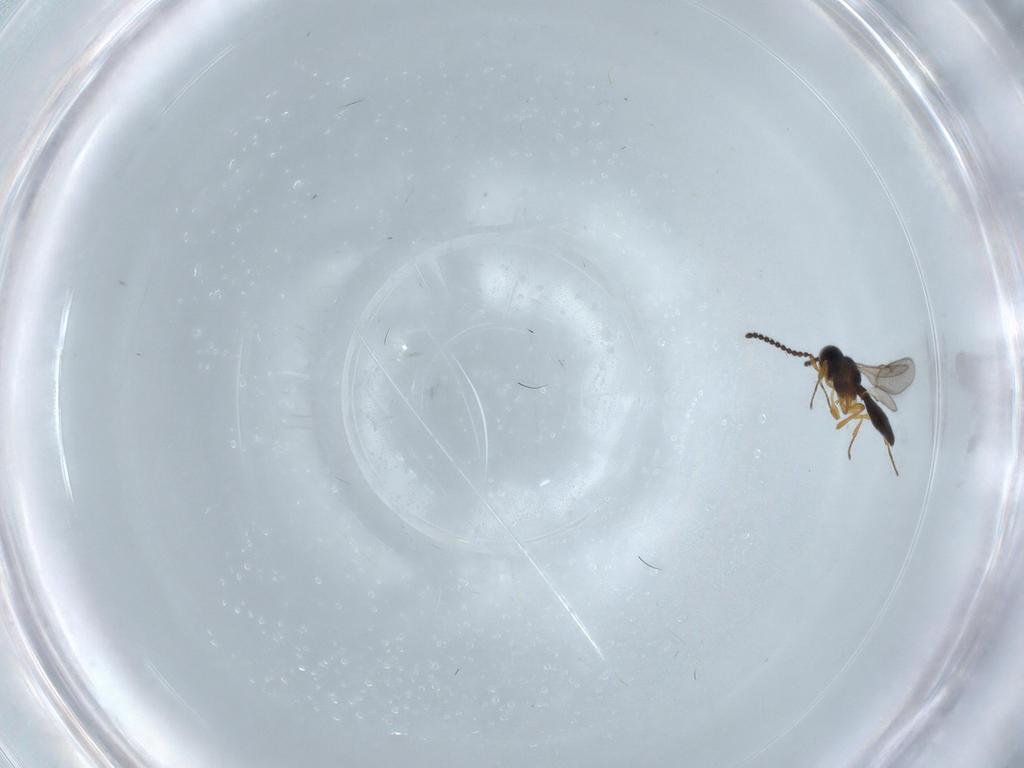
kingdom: Animalia
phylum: Arthropoda
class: Insecta
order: Hymenoptera
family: Scelionidae
